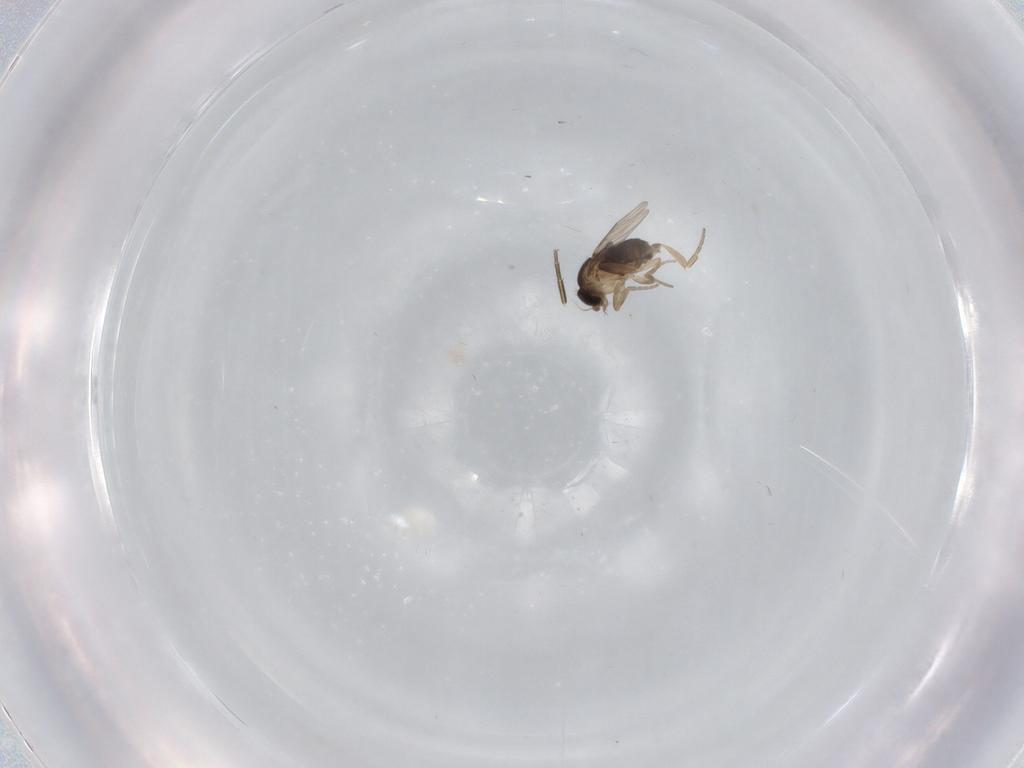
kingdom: Animalia
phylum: Arthropoda
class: Insecta
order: Diptera
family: Phoridae
